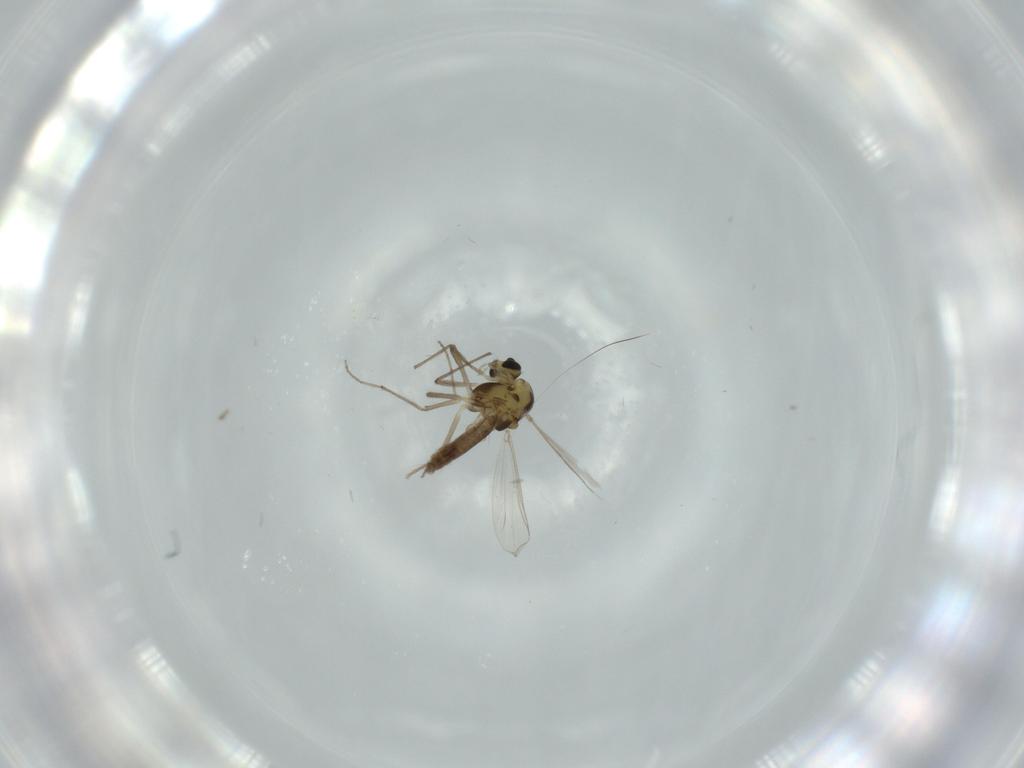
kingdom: Animalia
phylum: Arthropoda
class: Insecta
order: Diptera
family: Chironomidae
